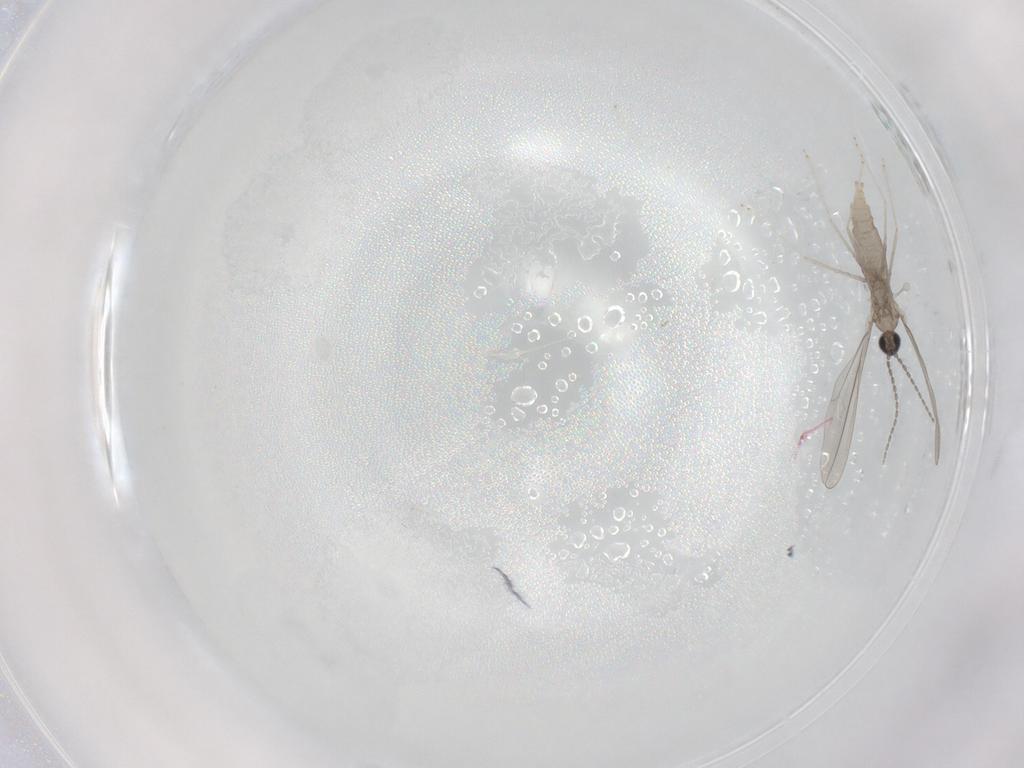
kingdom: Animalia
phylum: Arthropoda
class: Insecta
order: Diptera
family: Cecidomyiidae
